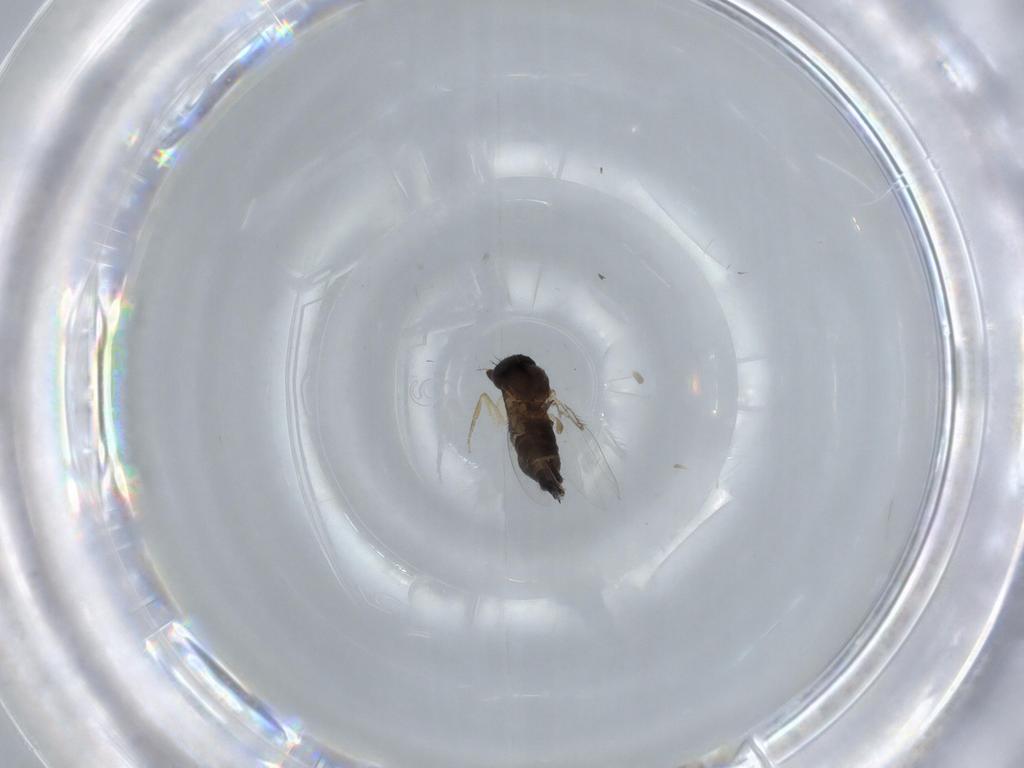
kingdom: Animalia
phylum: Arthropoda
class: Insecta
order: Diptera
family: Phoridae
